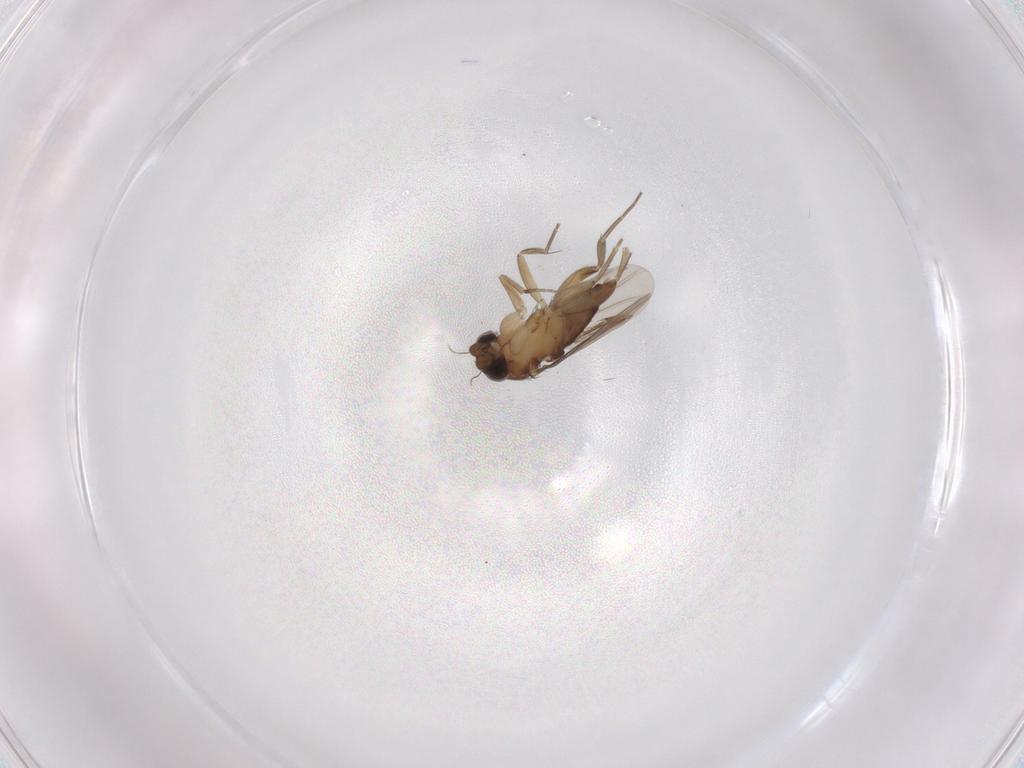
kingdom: Animalia
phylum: Arthropoda
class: Insecta
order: Diptera
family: Phoridae
